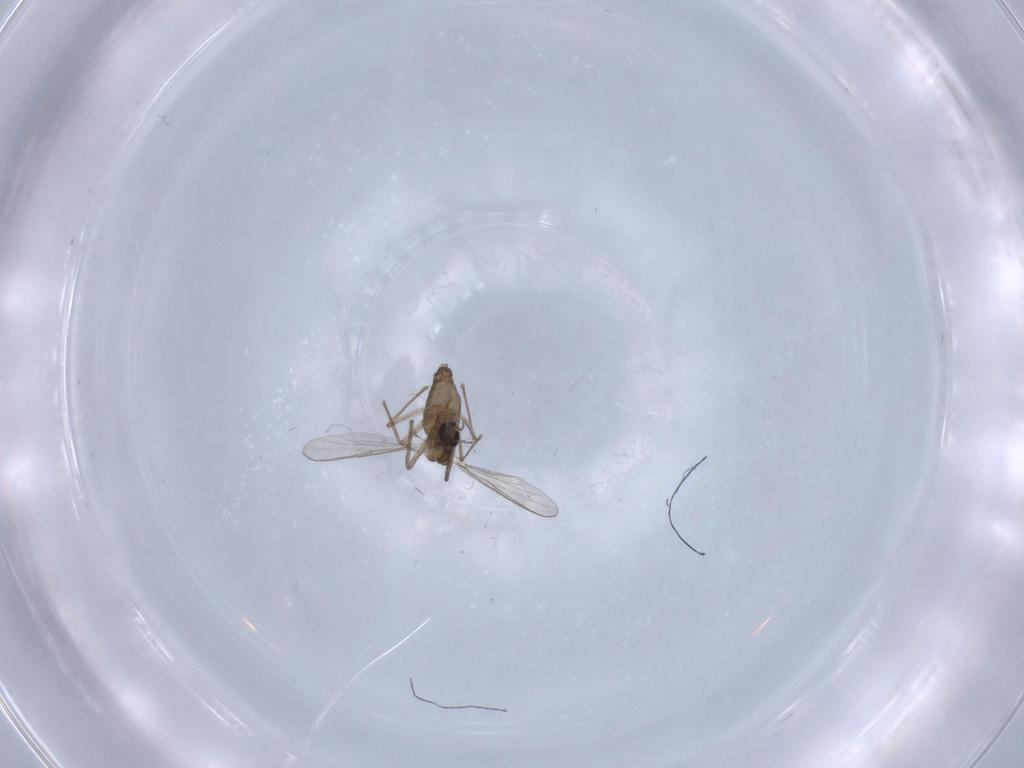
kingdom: Animalia
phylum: Arthropoda
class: Insecta
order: Diptera
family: Chironomidae
